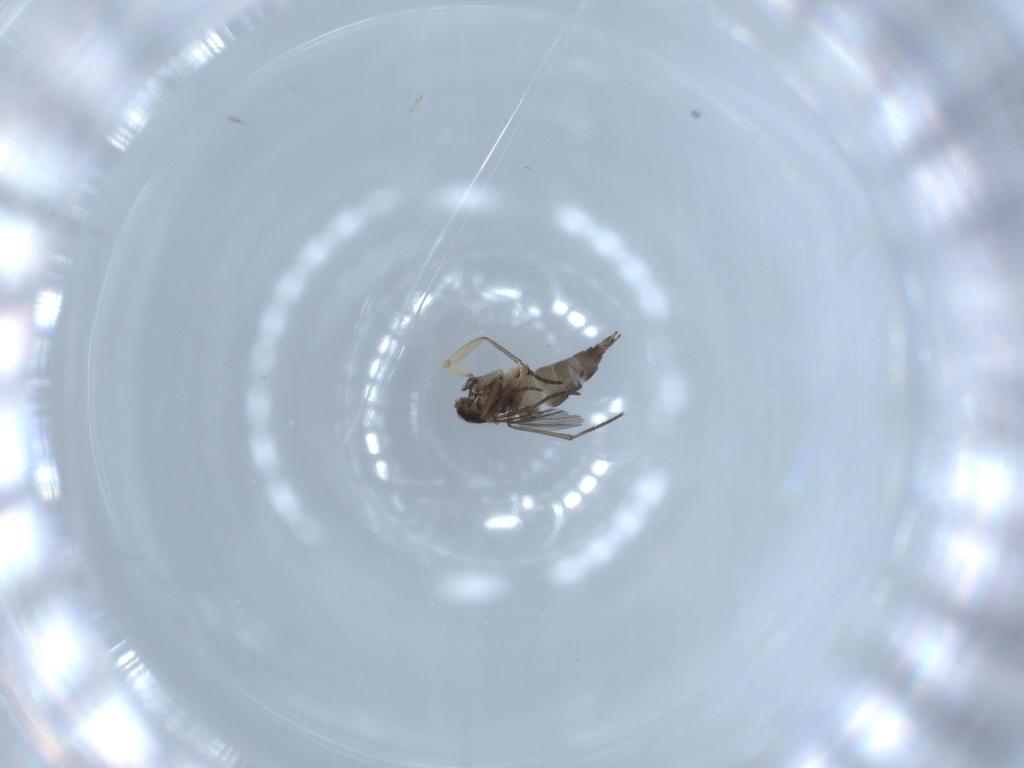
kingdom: Animalia
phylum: Arthropoda
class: Insecta
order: Diptera
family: Sciaridae
